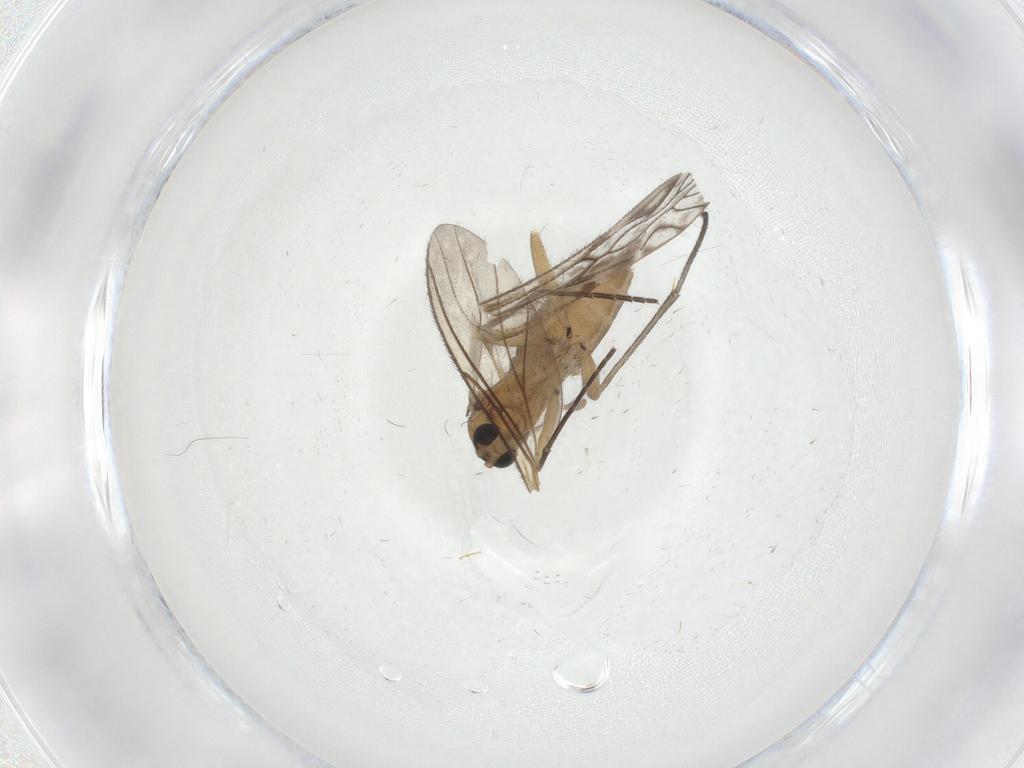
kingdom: Animalia
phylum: Arthropoda
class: Insecta
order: Diptera
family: Sciaridae
